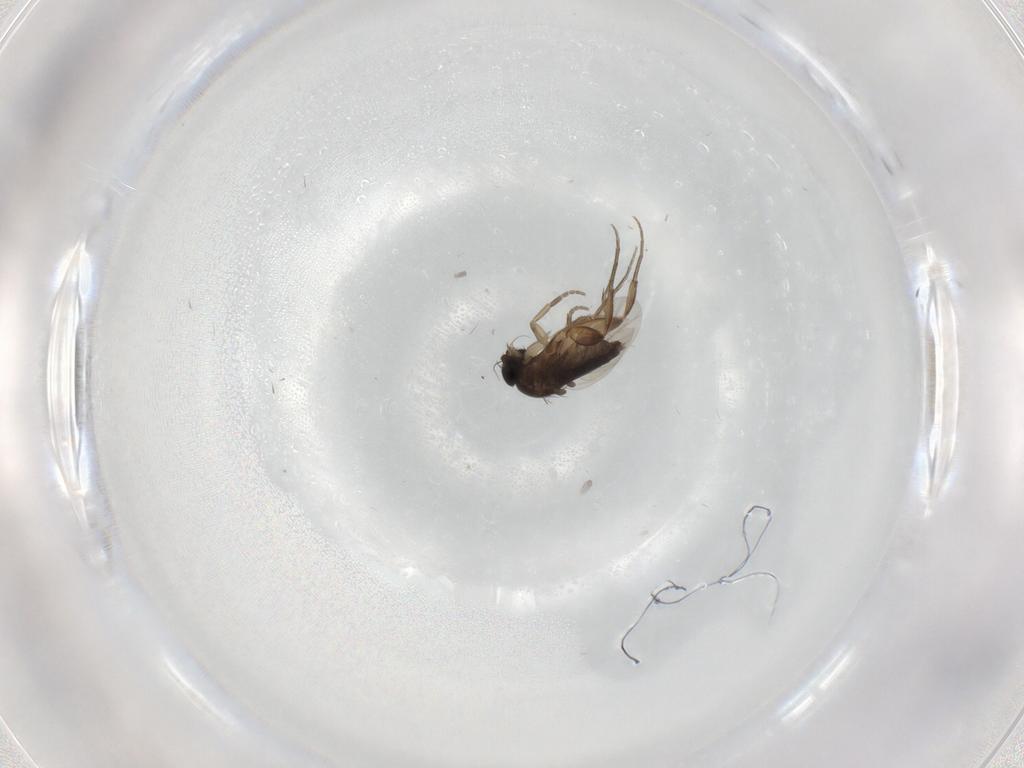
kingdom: Animalia
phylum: Arthropoda
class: Insecta
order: Diptera
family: Phoridae
